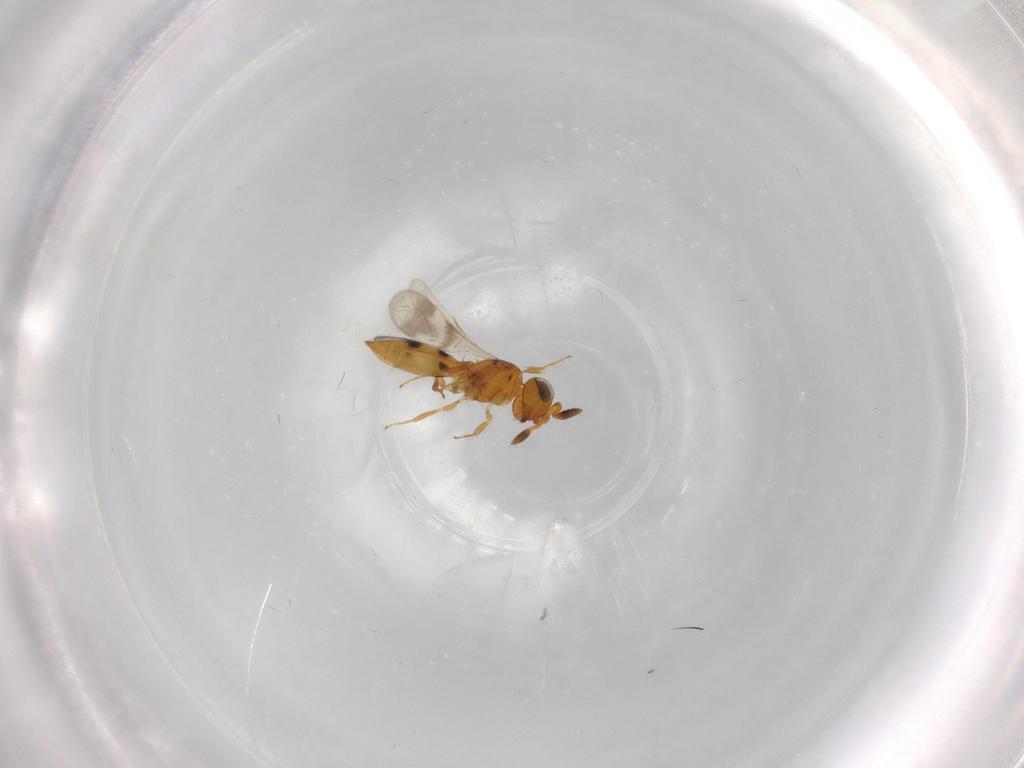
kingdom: Animalia
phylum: Arthropoda
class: Insecta
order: Hymenoptera
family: Scelionidae
